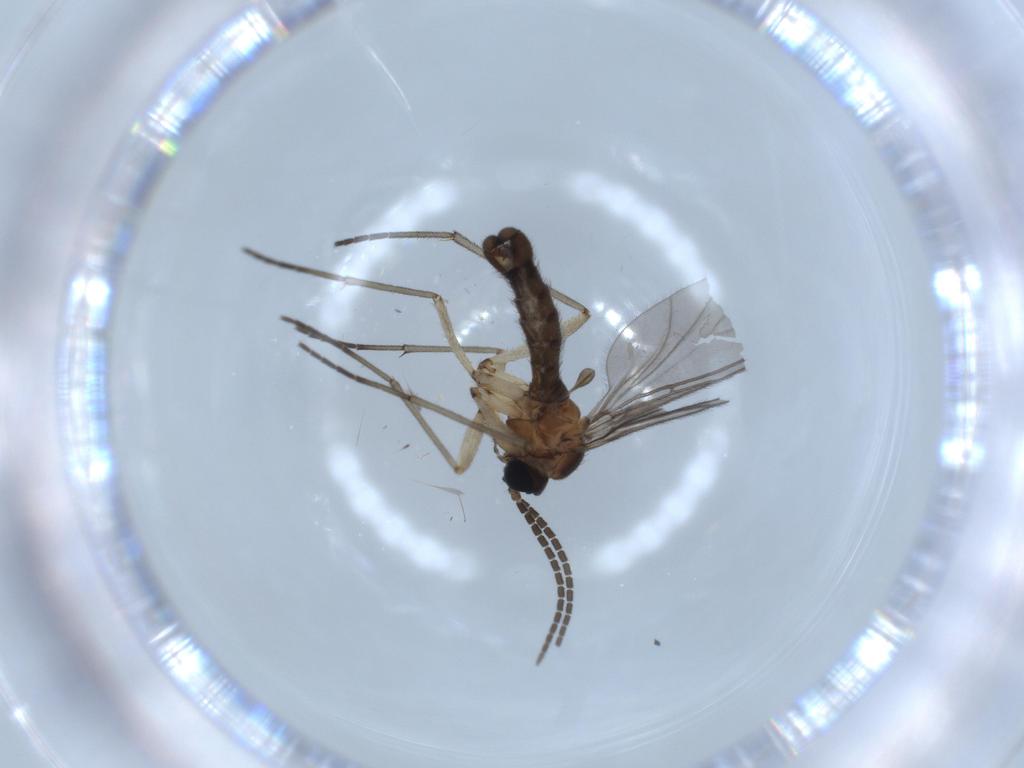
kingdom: Animalia
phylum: Arthropoda
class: Insecta
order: Diptera
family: Sciaridae
